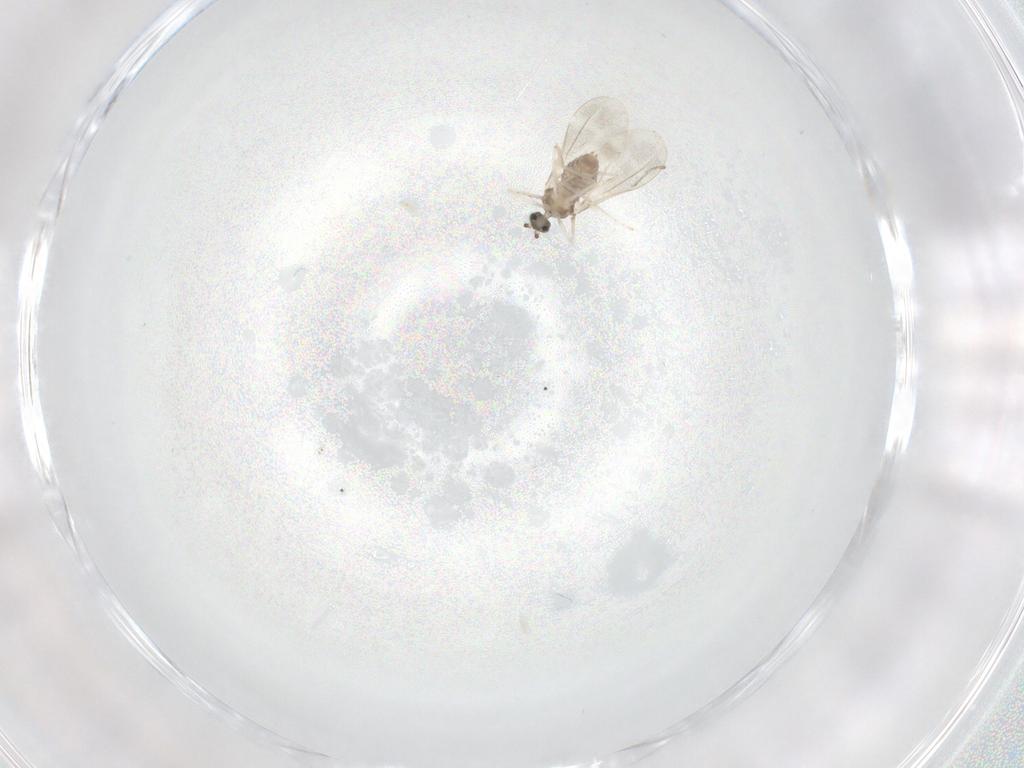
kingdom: Animalia
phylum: Arthropoda
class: Insecta
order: Diptera
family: Cecidomyiidae
